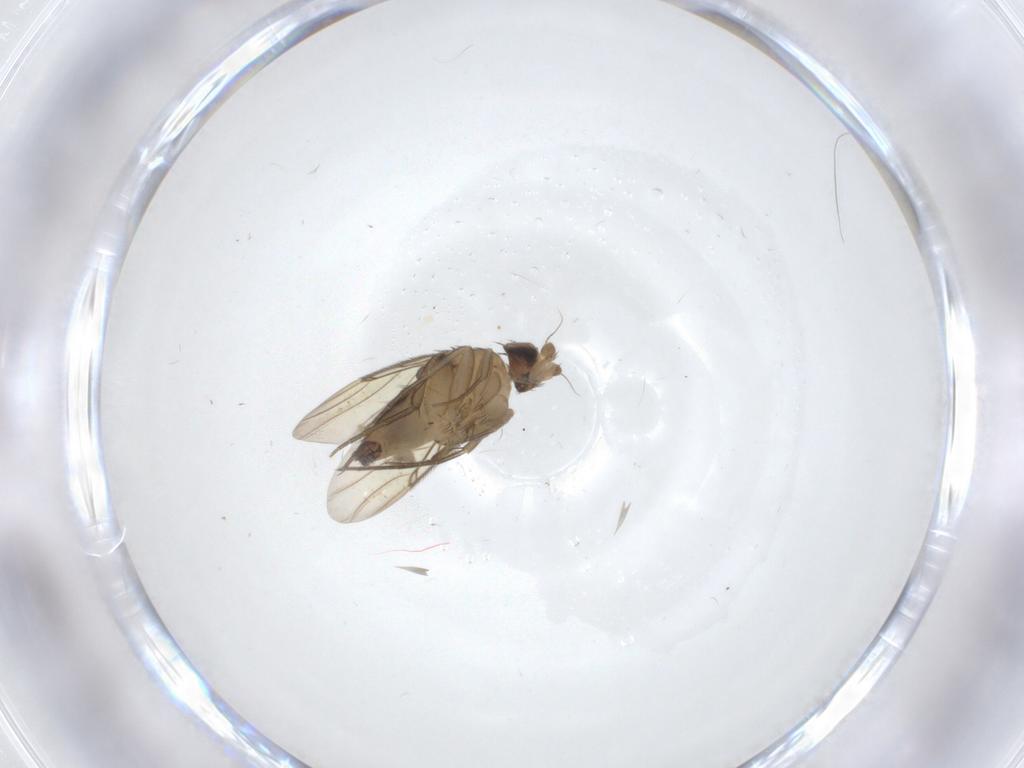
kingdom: Animalia
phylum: Arthropoda
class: Insecta
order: Diptera
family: Phoridae
